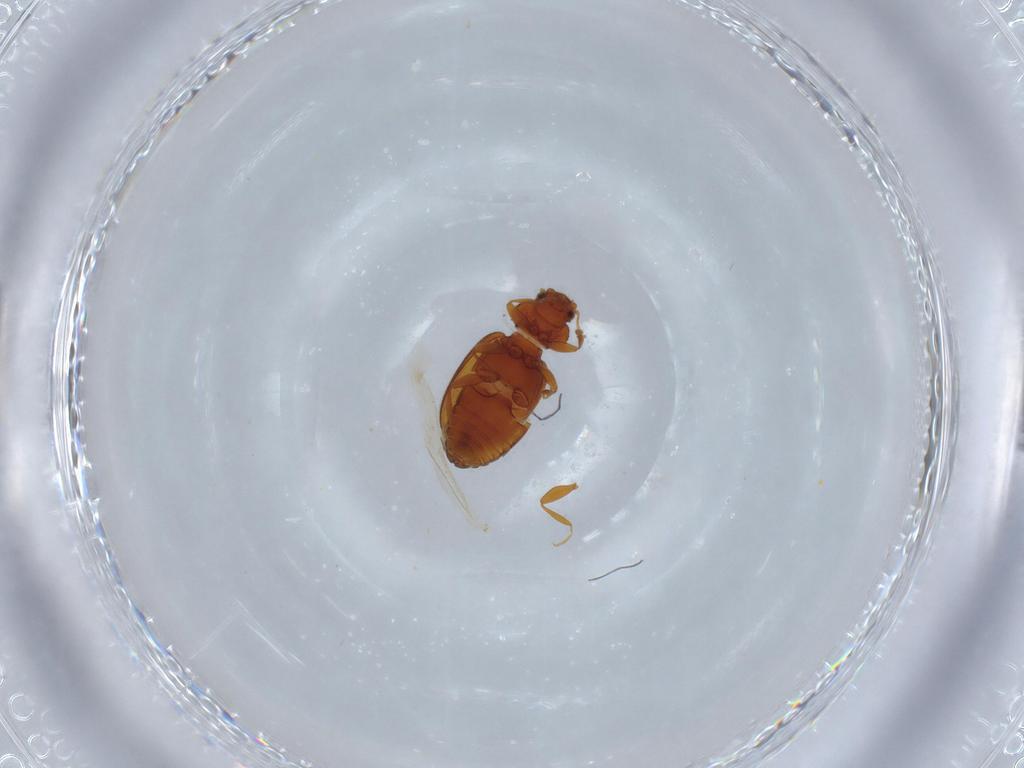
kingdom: Animalia
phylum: Arthropoda
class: Insecta
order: Coleoptera
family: Latridiidae
